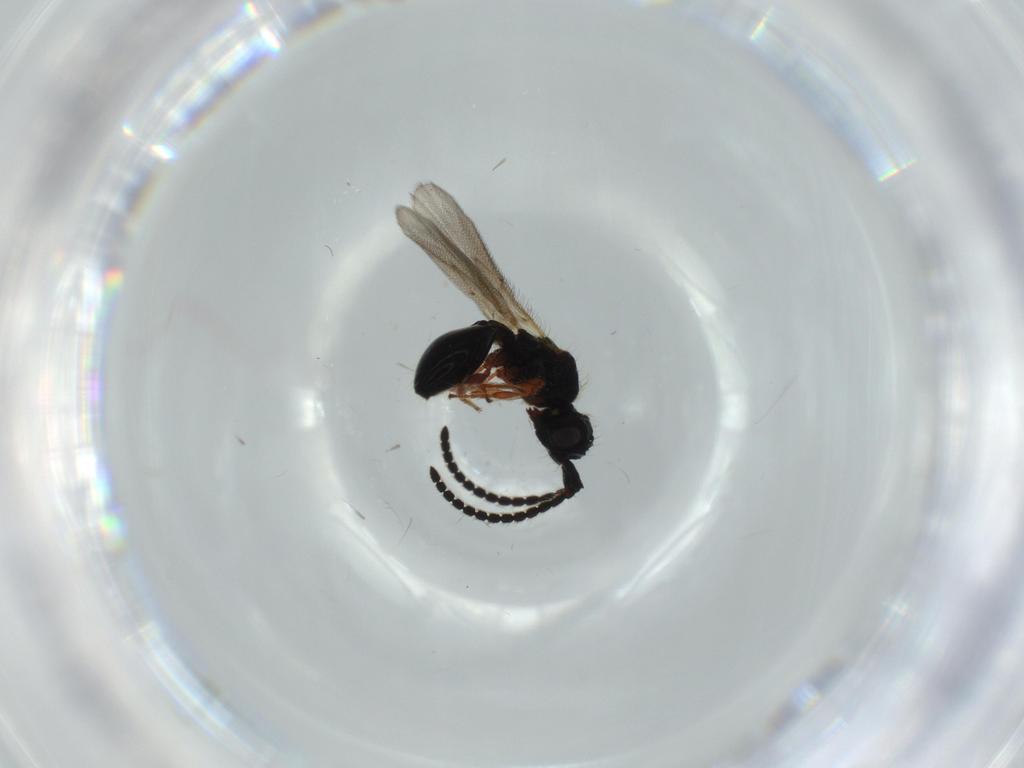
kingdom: Animalia
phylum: Arthropoda
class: Insecta
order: Hymenoptera
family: Diapriidae
